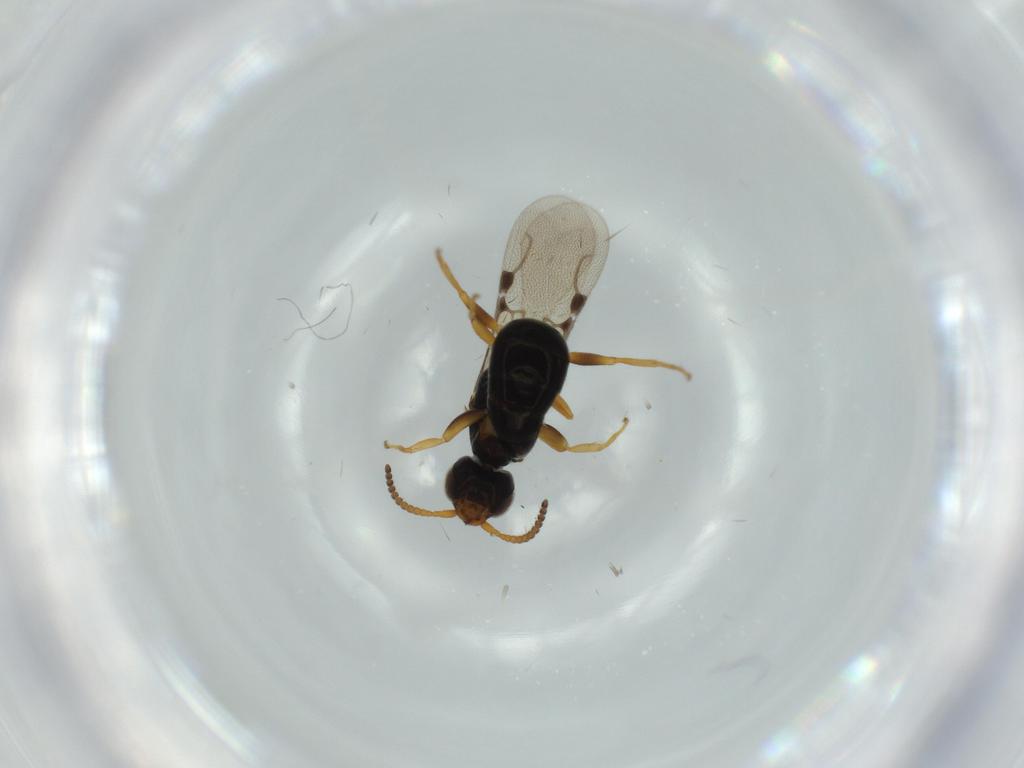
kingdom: Animalia
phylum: Arthropoda
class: Insecta
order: Hymenoptera
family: Bethylidae
